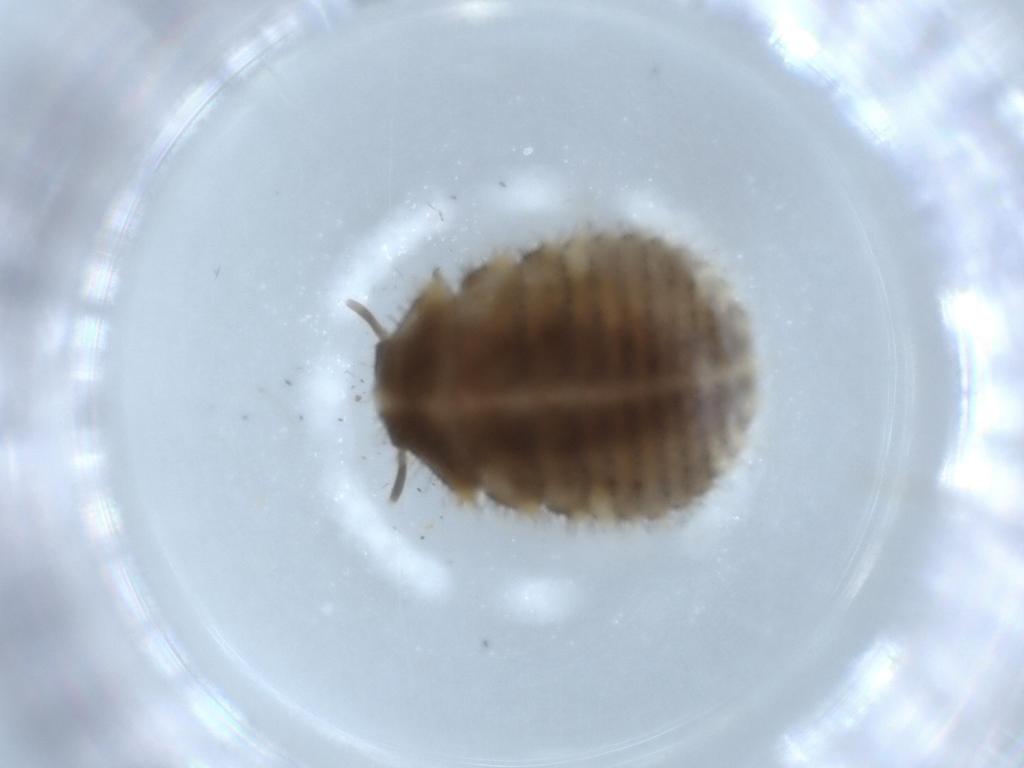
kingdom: Animalia
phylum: Arthropoda
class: Insecta
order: Coleoptera
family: Endomychidae
